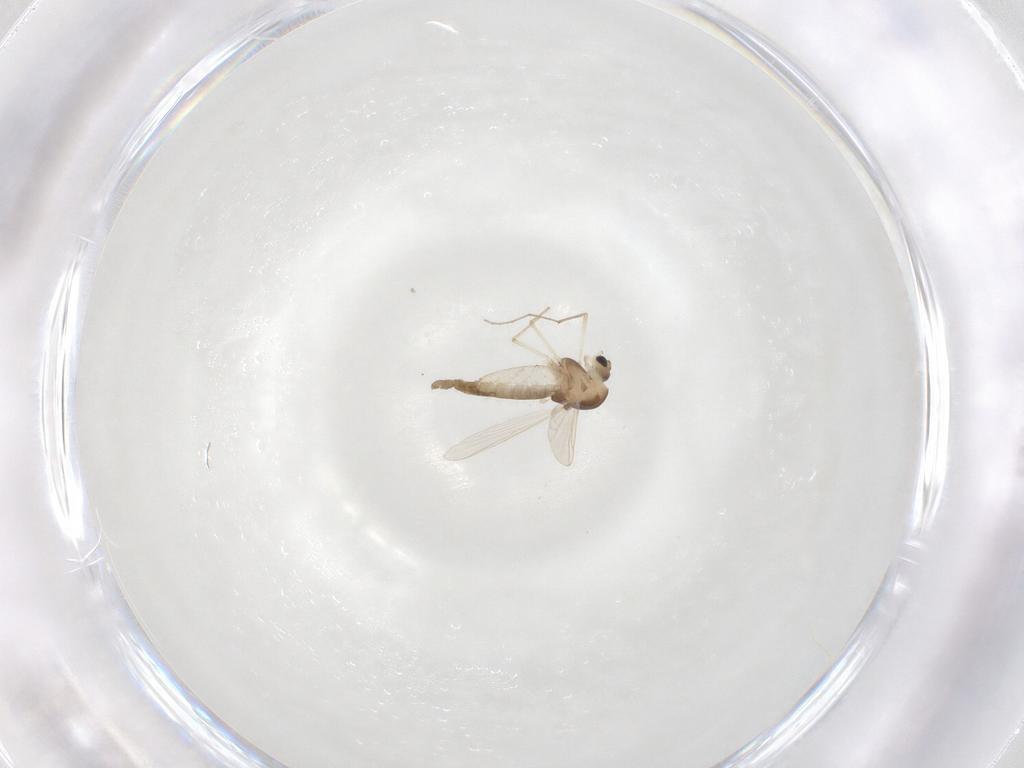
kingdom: Animalia
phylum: Arthropoda
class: Insecta
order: Diptera
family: Chironomidae
